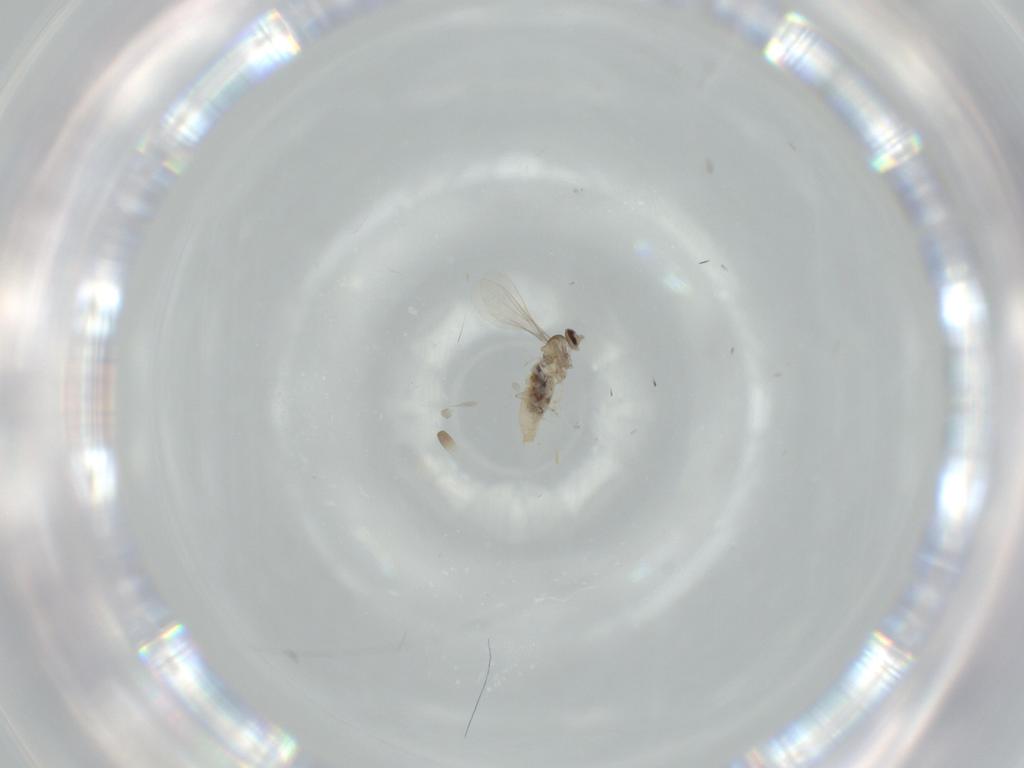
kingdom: Animalia
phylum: Arthropoda
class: Insecta
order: Diptera
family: Cecidomyiidae
